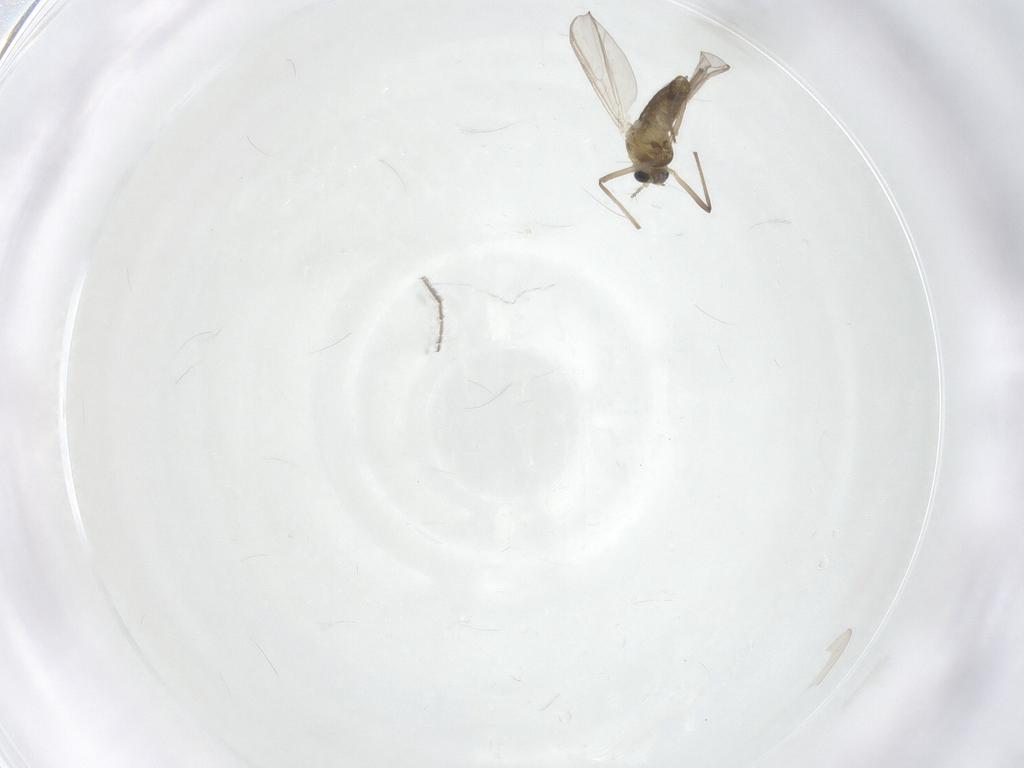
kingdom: Animalia
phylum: Arthropoda
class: Insecta
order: Diptera
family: Chironomidae
